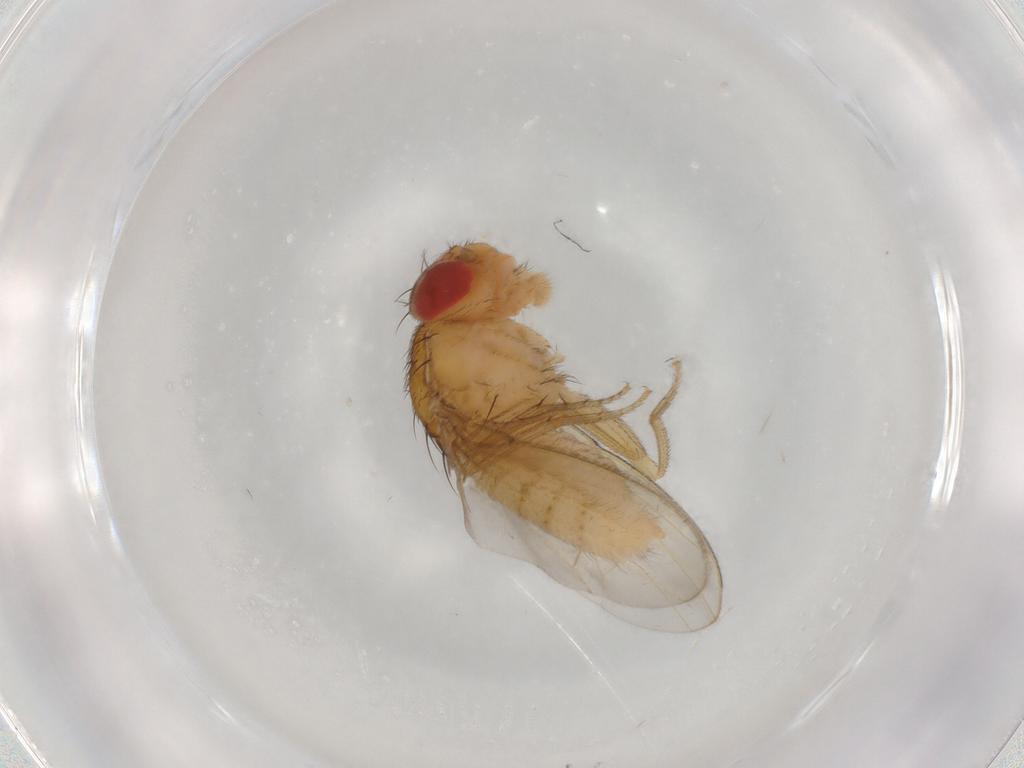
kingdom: Animalia
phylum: Arthropoda
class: Insecta
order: Diptera
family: Drosophilidae
